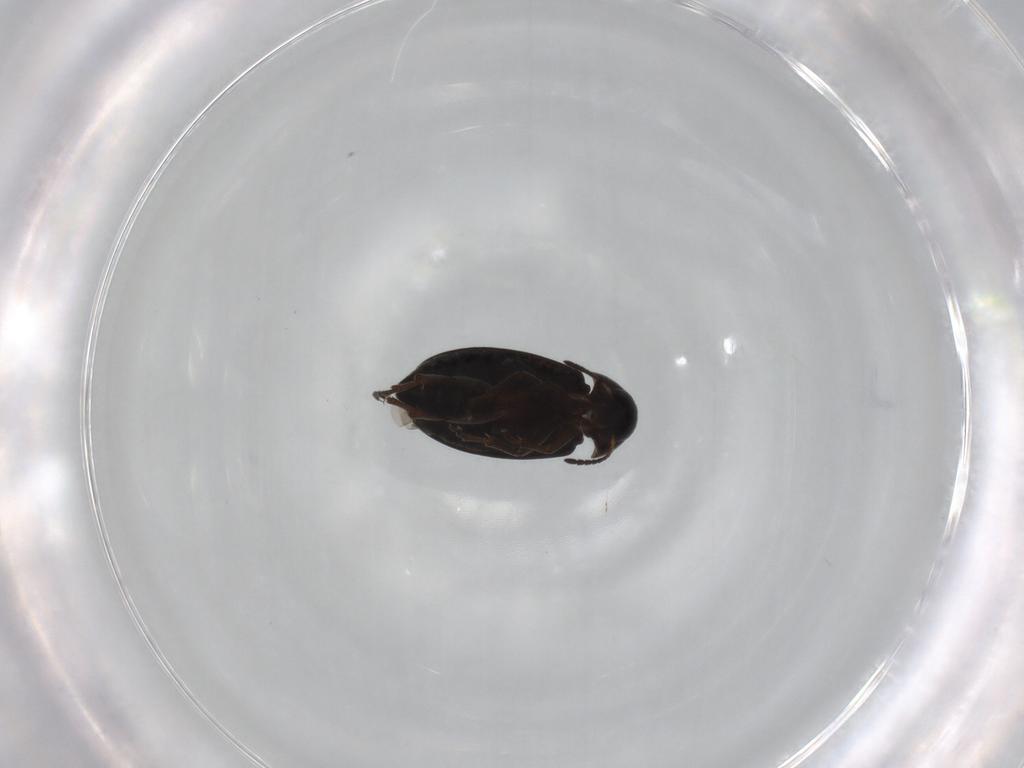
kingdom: Animalia
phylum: Arthropoda
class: Insecta
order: Coleoptera
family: Scraptiidae
